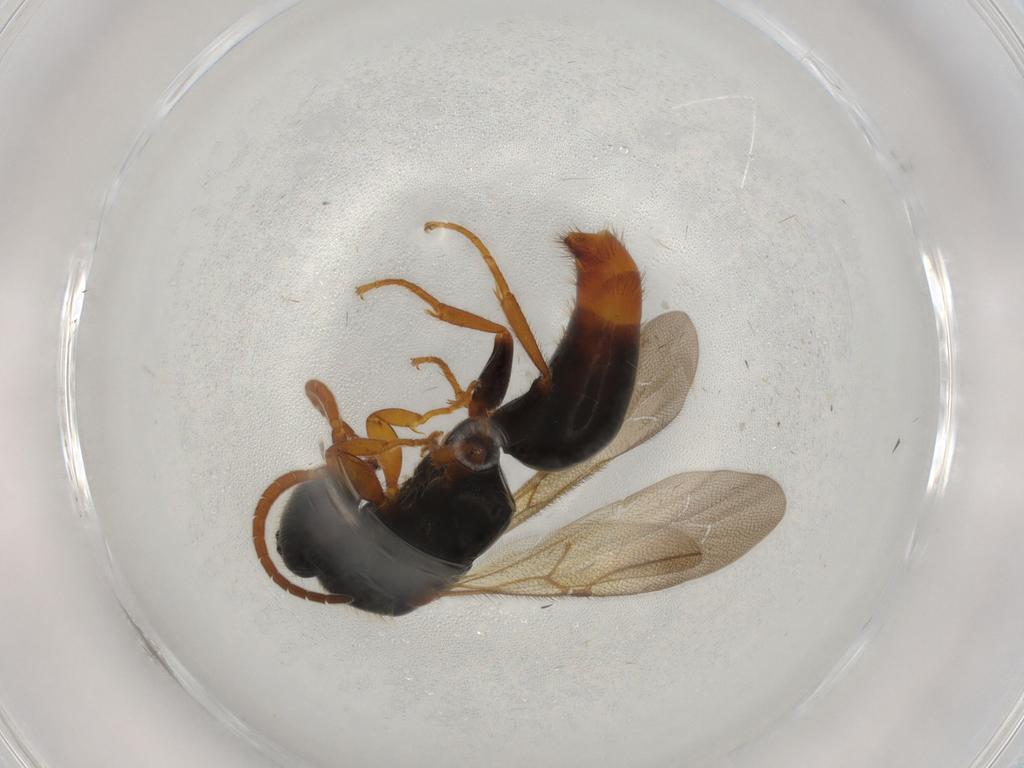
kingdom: Animalia
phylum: Arthropoda
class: Insecta
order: Hymenoptera
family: Bethylidae
